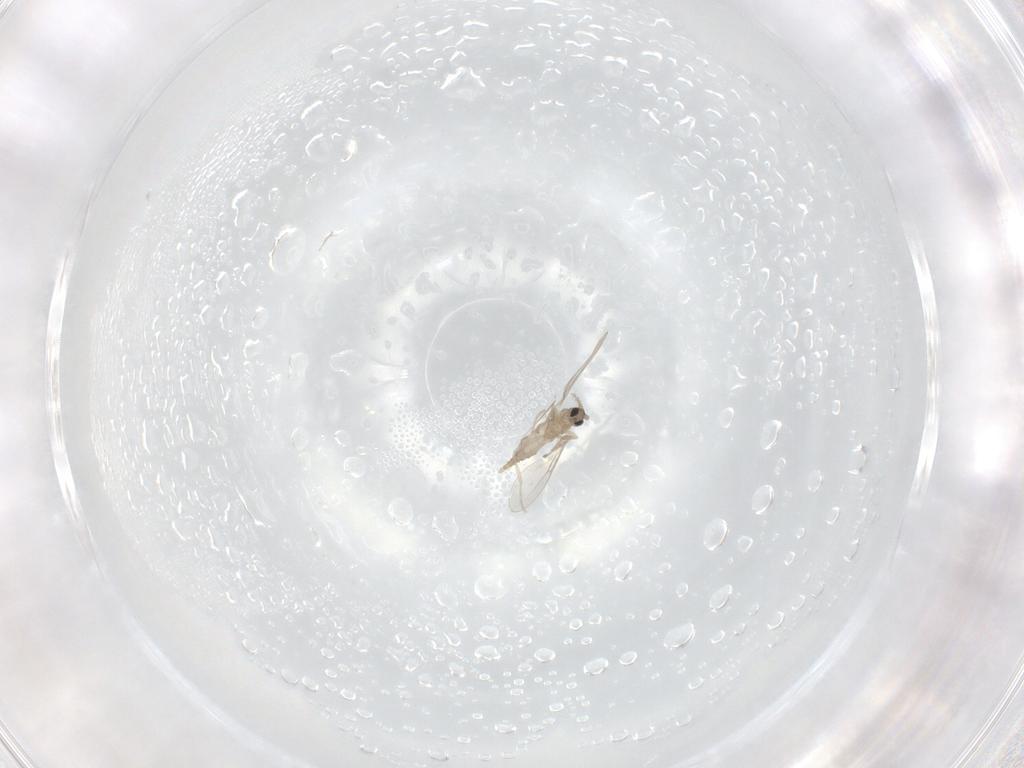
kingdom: Animalia
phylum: Arthropoda
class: Insecta
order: Diptera
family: Cecidomyiidae
